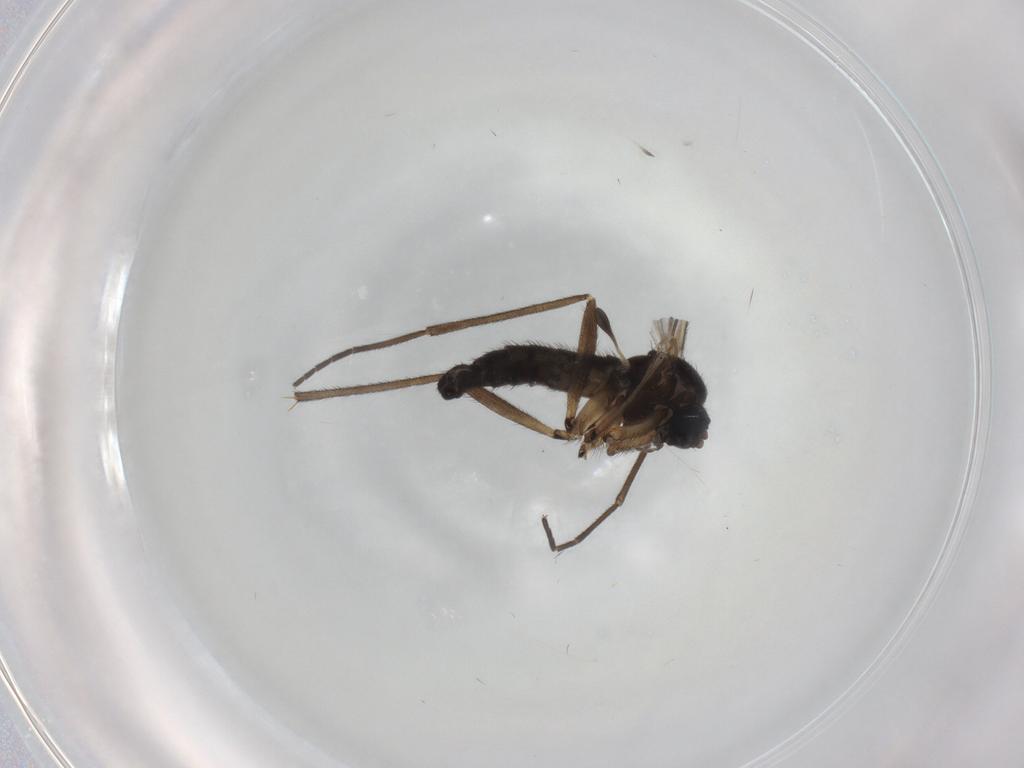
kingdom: Animalia
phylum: Arthropoda
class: Insecta
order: Diptera
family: Sciaridae
